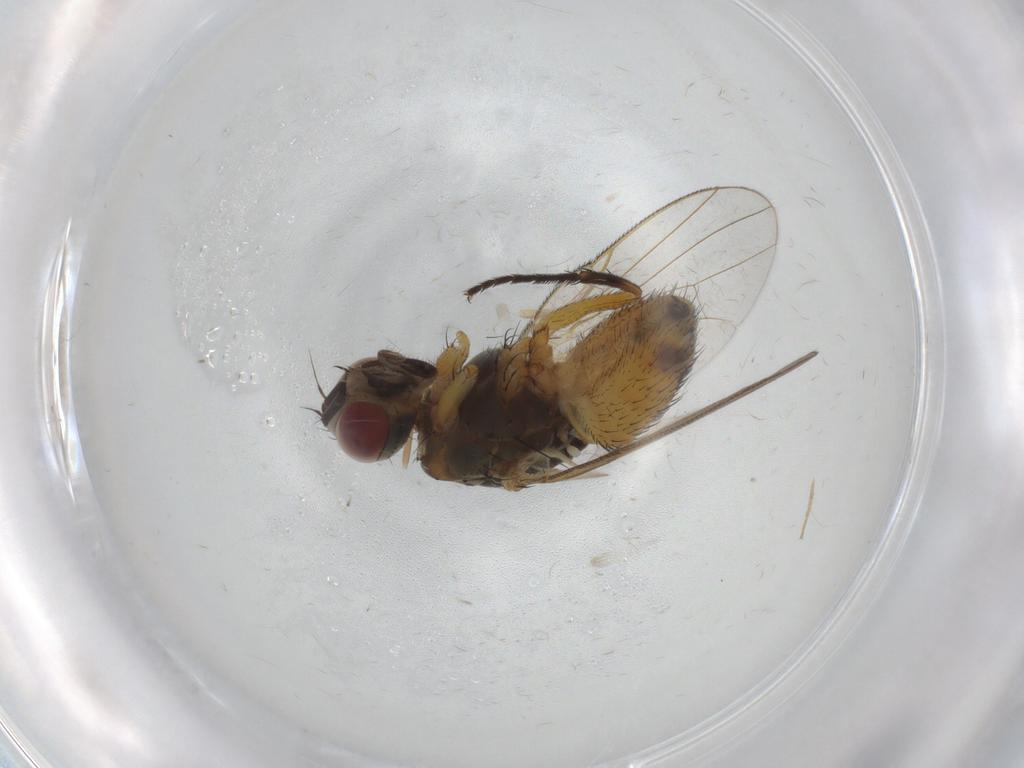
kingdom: Animalia
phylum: Arthropoda
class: Insecta
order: Diptera
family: Muscidae
